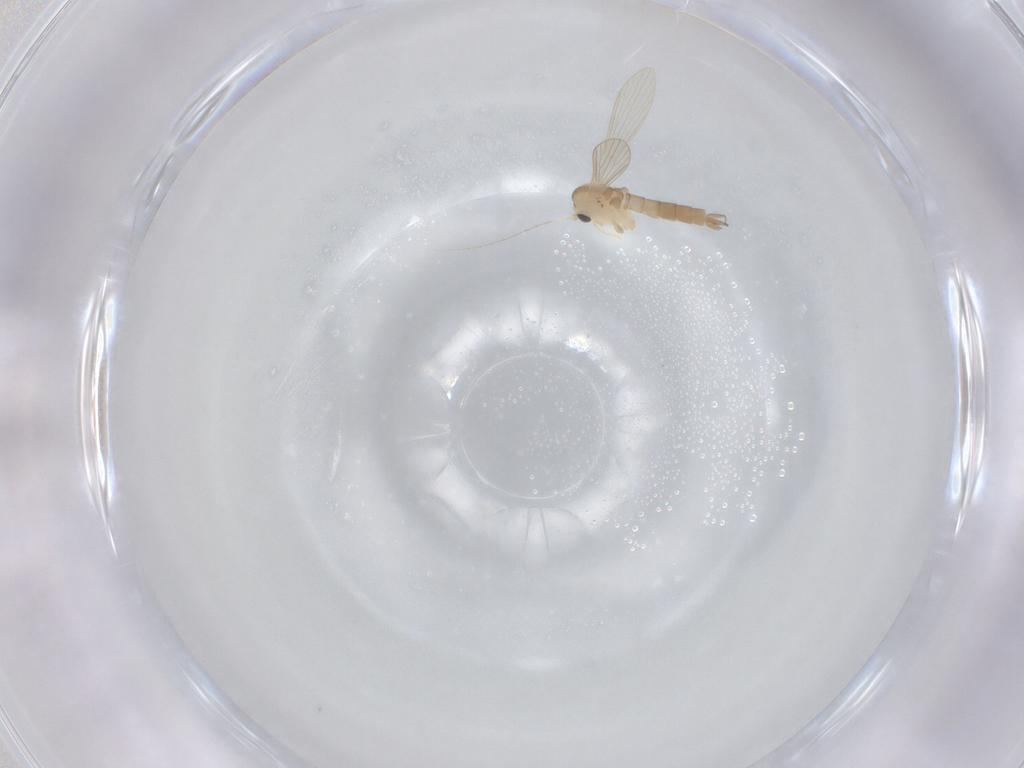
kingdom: Animalia
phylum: Arthropoda
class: Insecta
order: Diptera
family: Psychodidae
